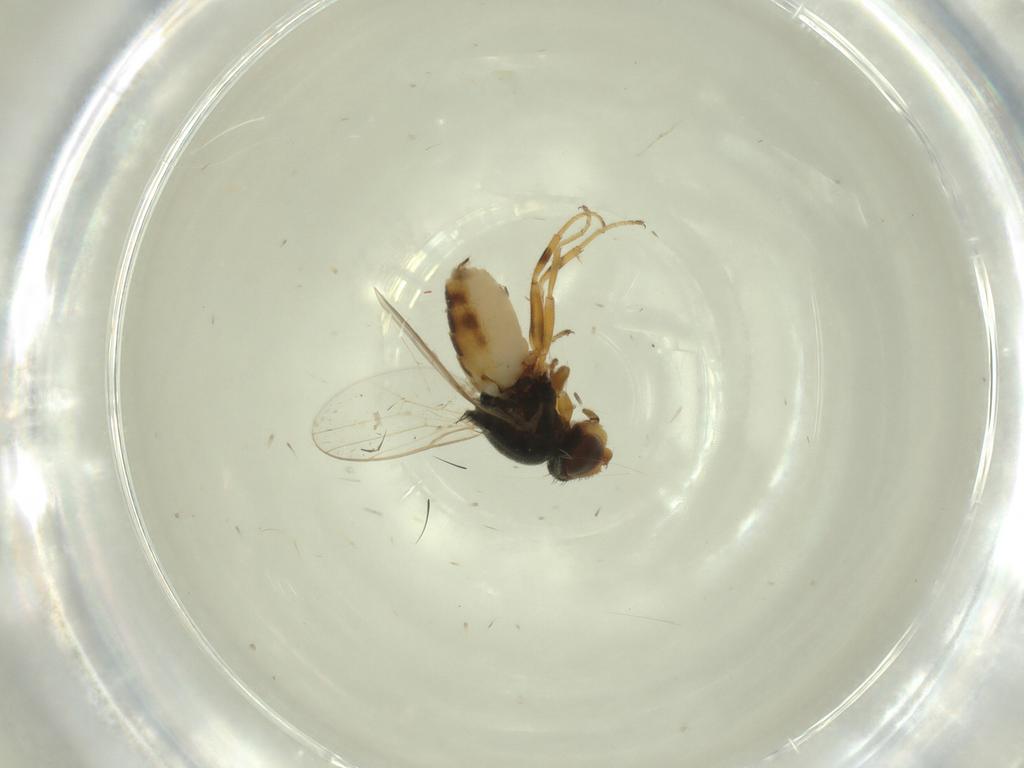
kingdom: Animalia
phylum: Arthropoda
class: Insecta
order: Diptera
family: Chloropidae
